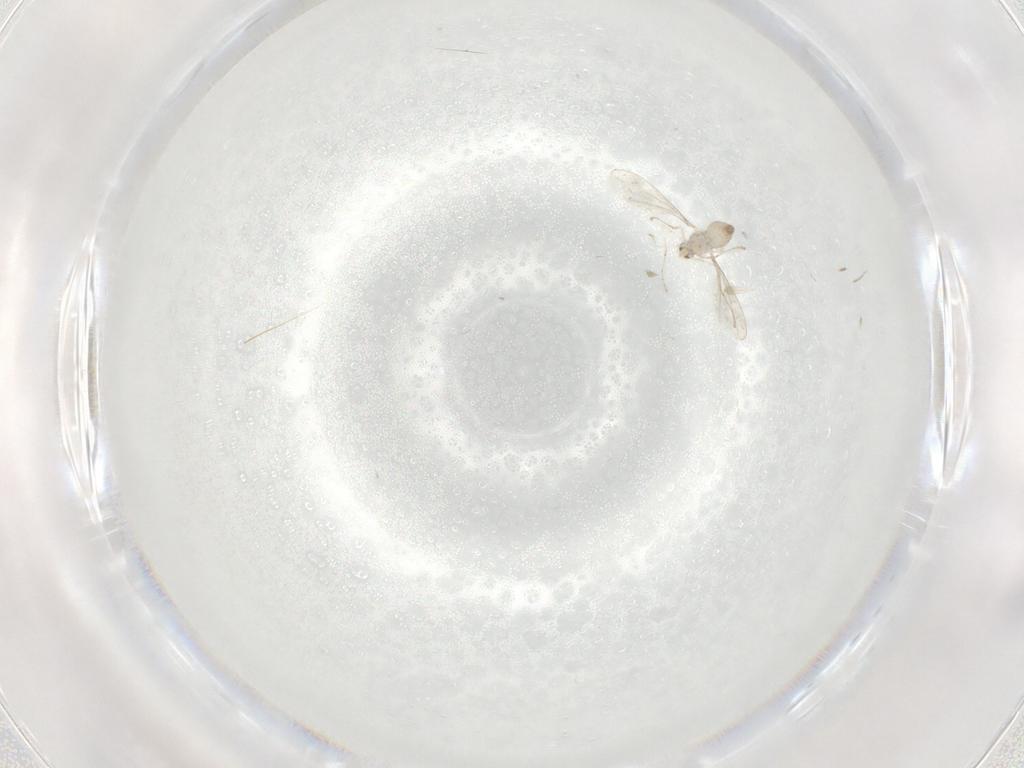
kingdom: Animalia
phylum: Arthropoda
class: Insecta
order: Diptera
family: Cecidomyiidae
